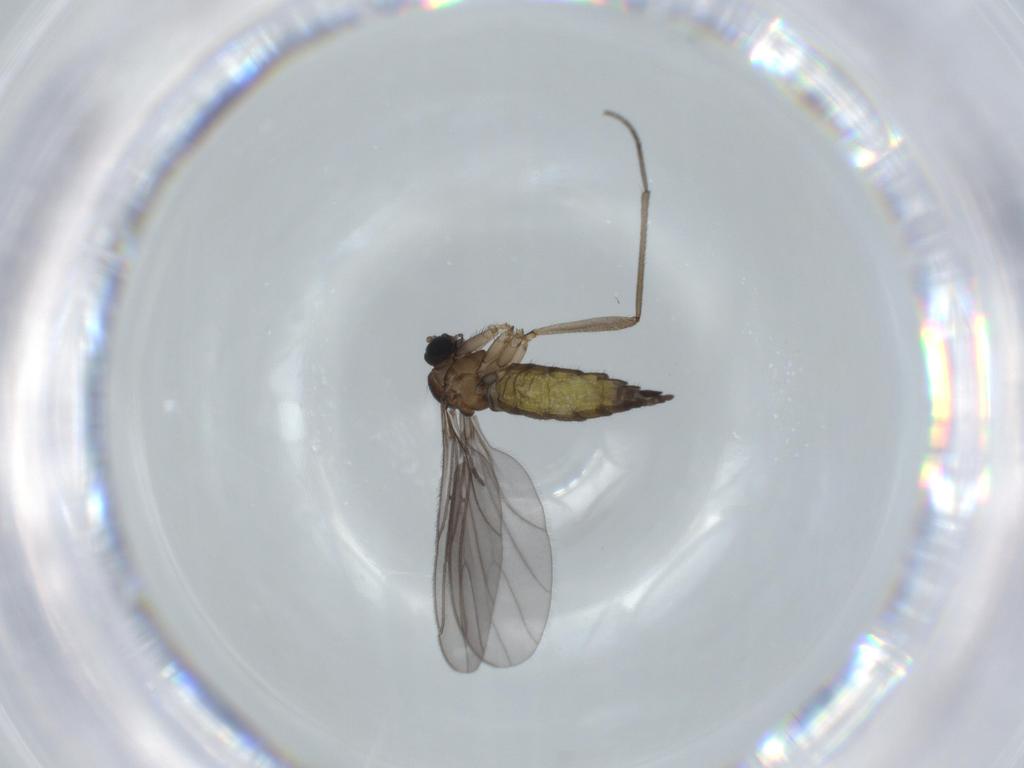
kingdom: Animalia
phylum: Arthropoda
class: Insecta
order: Diptera
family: Sciaridae
